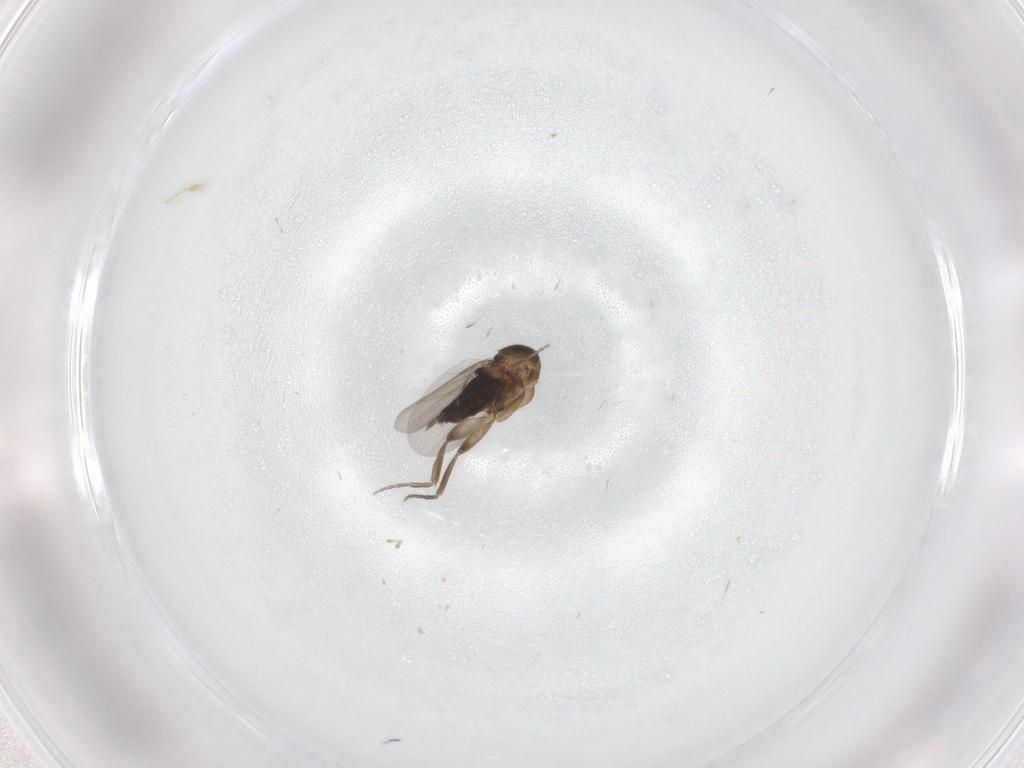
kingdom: Animalia
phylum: Arthropoda
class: Insecta
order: Diptera
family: Phoridae
